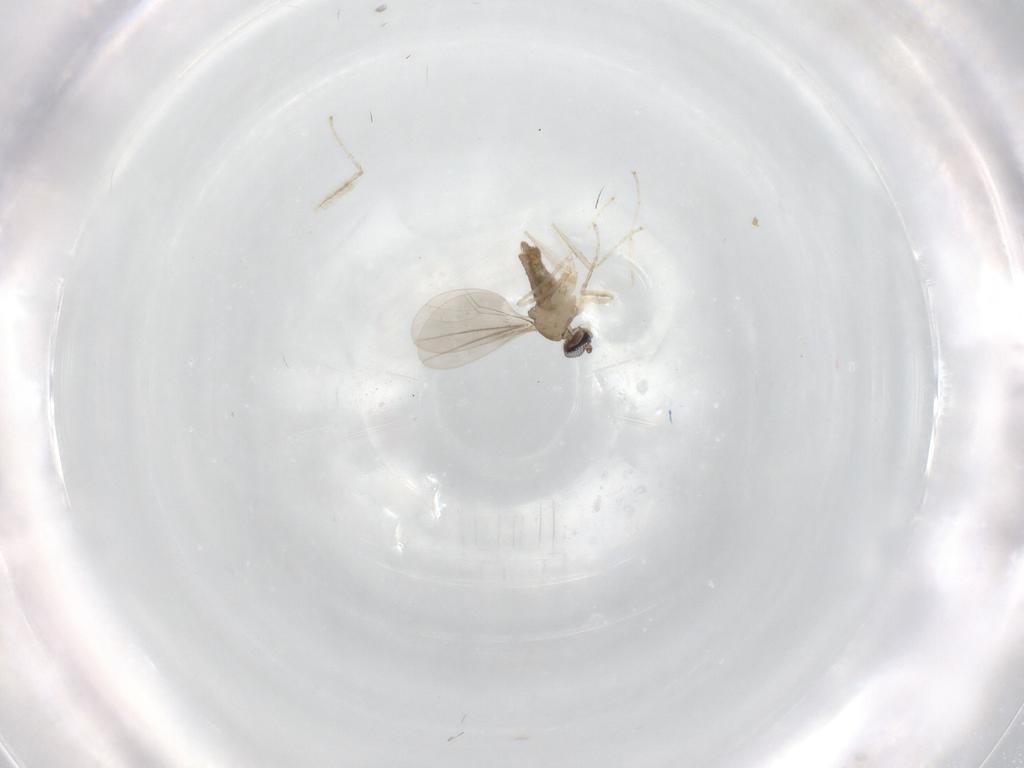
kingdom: Animalia
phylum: Arthropoda
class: Insecta
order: Diptera
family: Cecidomyiidae
